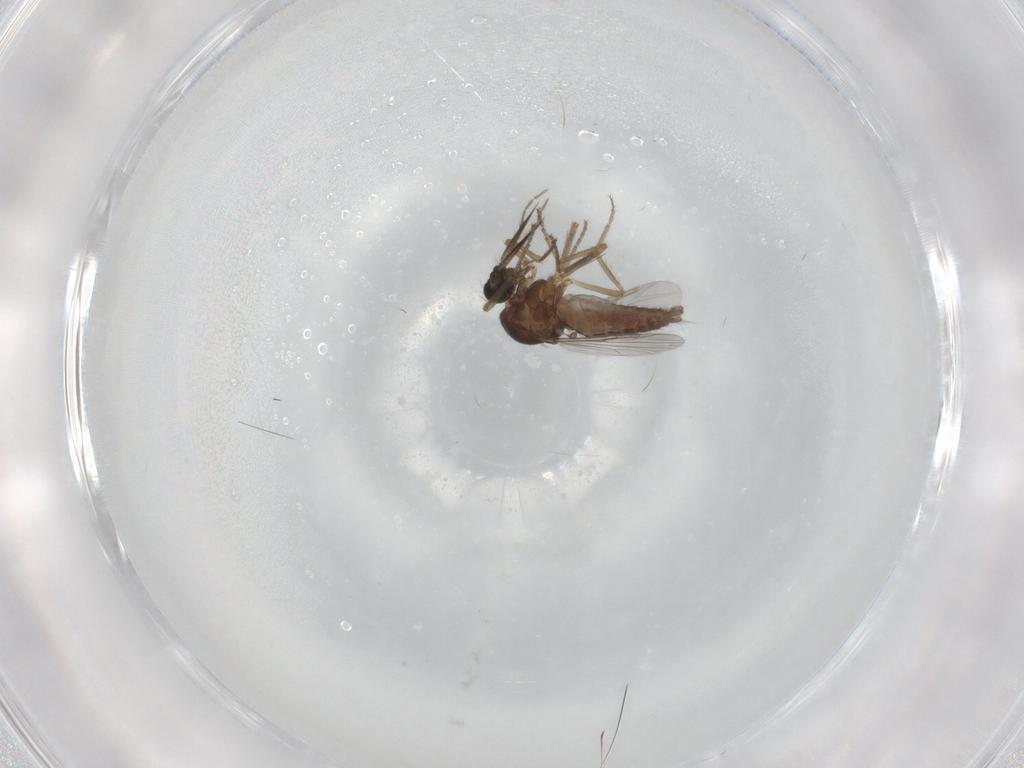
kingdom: Animalia
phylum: Arthropoda
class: Insecta
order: Diptera
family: Ceratopogonidae
